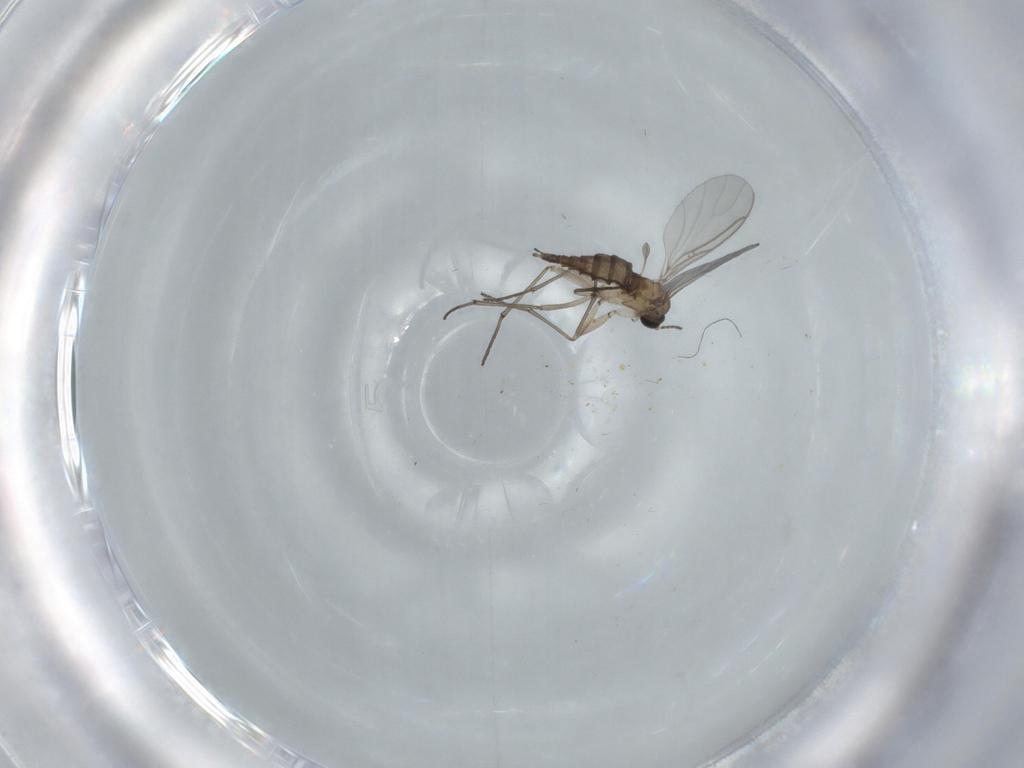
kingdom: Animalia
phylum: Arthropoda
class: Insecta
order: Diptera
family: Sciaridae
